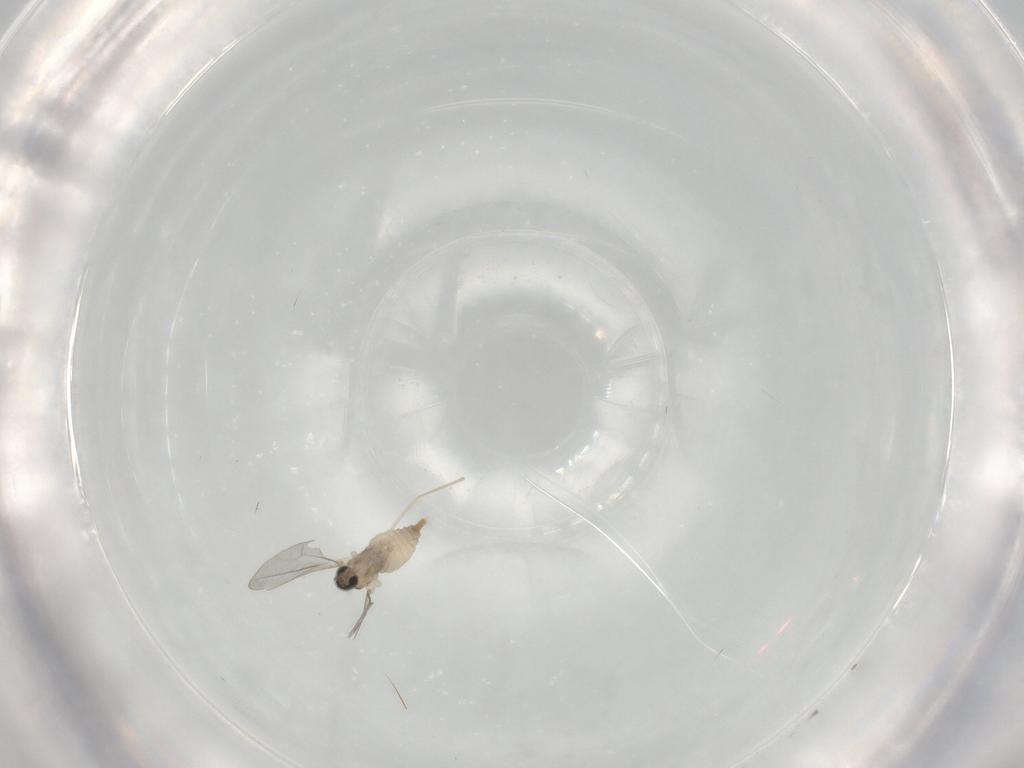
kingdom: Animalia
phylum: Arthropoda
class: Insecta
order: Diptera
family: Cecidomyiidae
